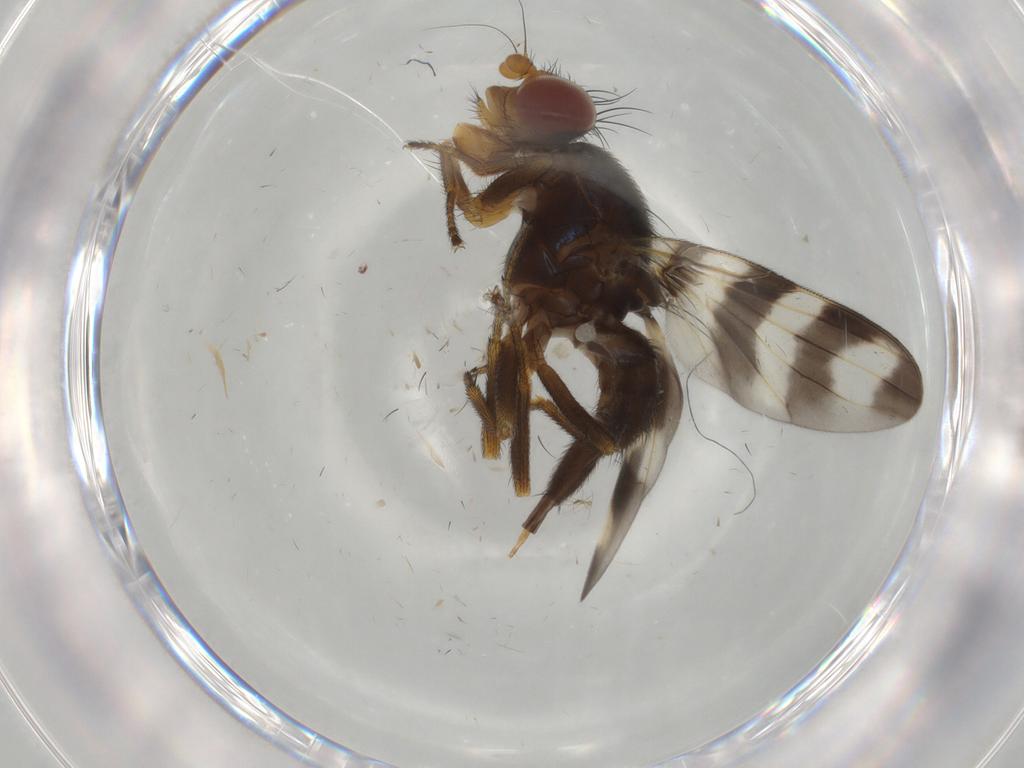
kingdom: Animalia
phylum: Arthropoda
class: Insecta
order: Diptera
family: Ulidiidae
